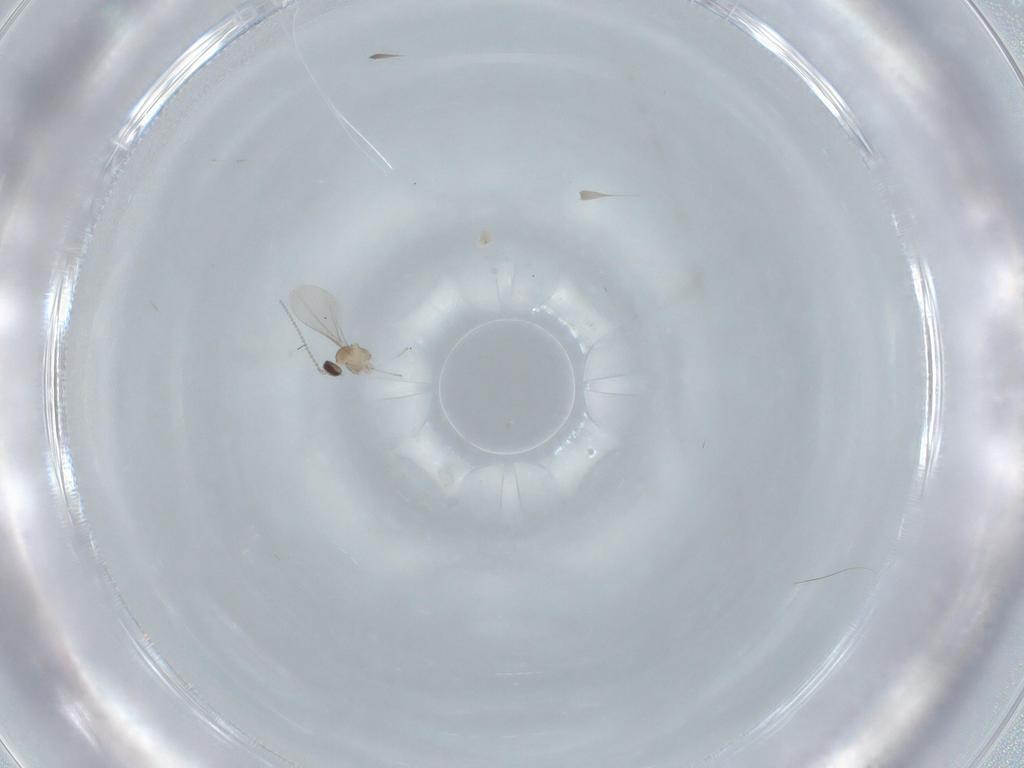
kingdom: Animalia
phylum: Arthropoda
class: Insecta
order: Diptera
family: Cecidomyiidae
